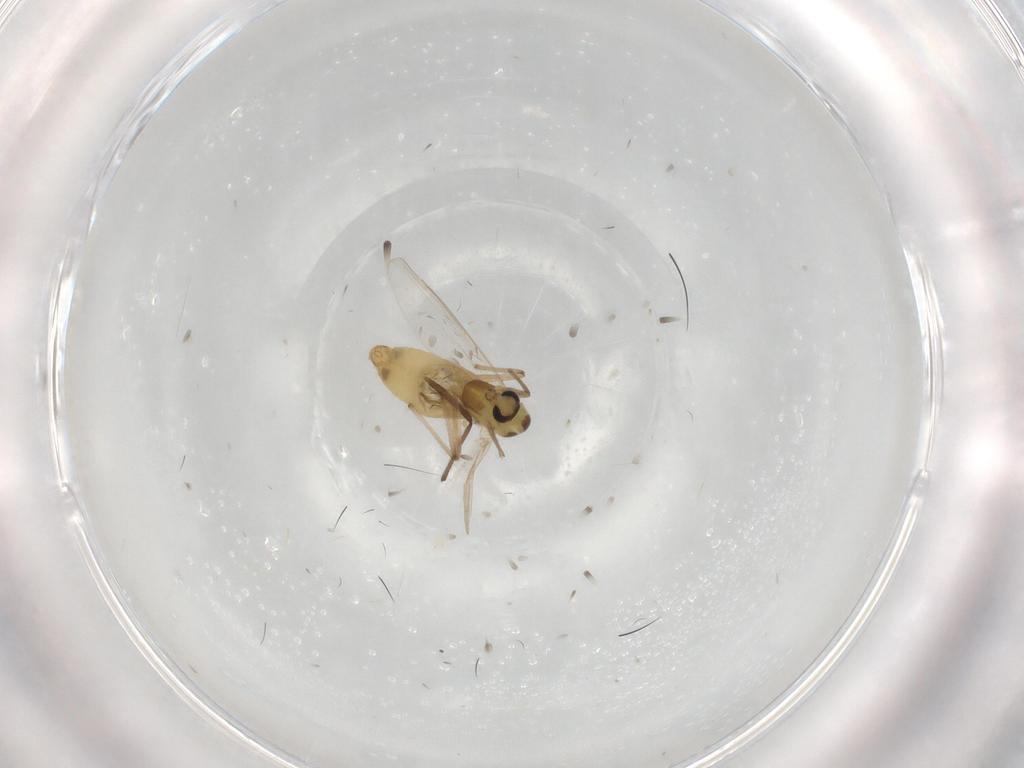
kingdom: Animalia
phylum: Arthropoda
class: Insecta
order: Diptera
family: Chironomidae
